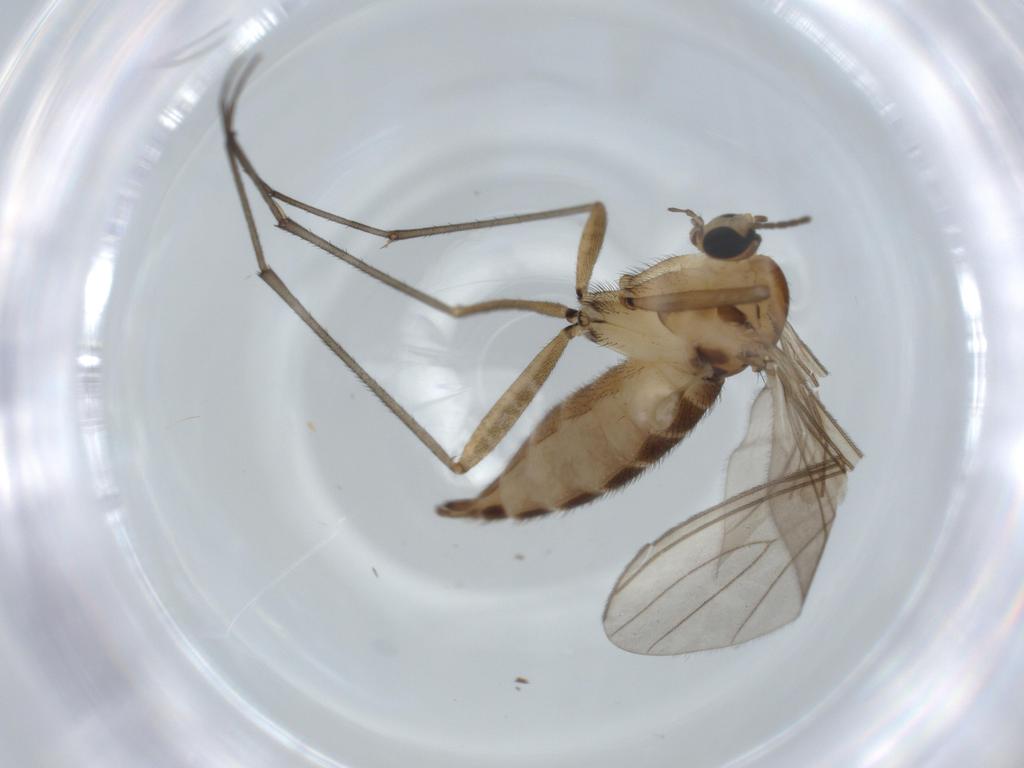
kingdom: Animalia
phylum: Arthropoda
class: Insecta
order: Diptera
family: Sciaridae
